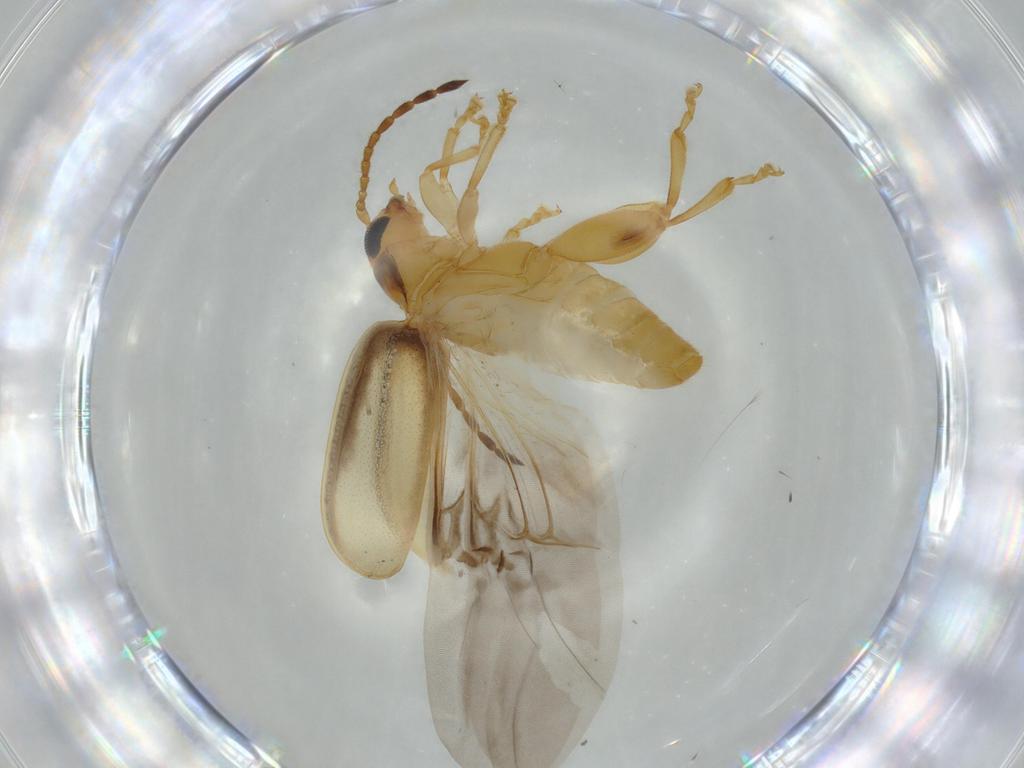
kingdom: Animalia
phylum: Arthropoda
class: Insecta
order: Coleoptera
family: Chrysomelidae
